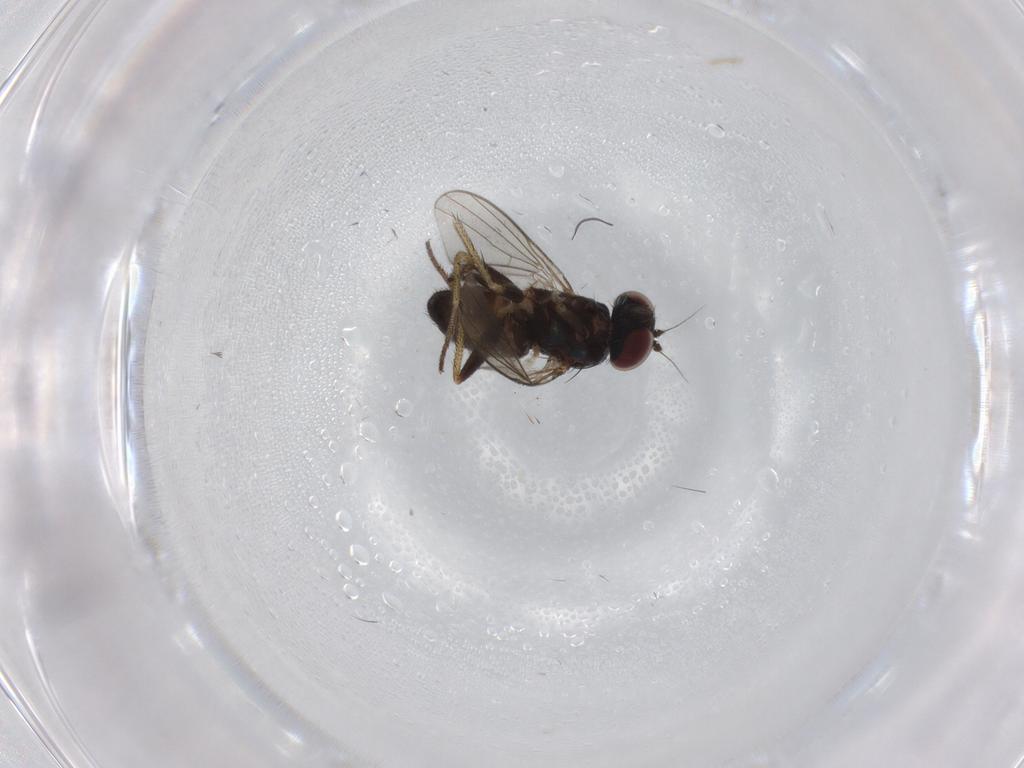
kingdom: Animalia
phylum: Arthropoda
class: Insecta
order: Diptera
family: Dolichopodidae
